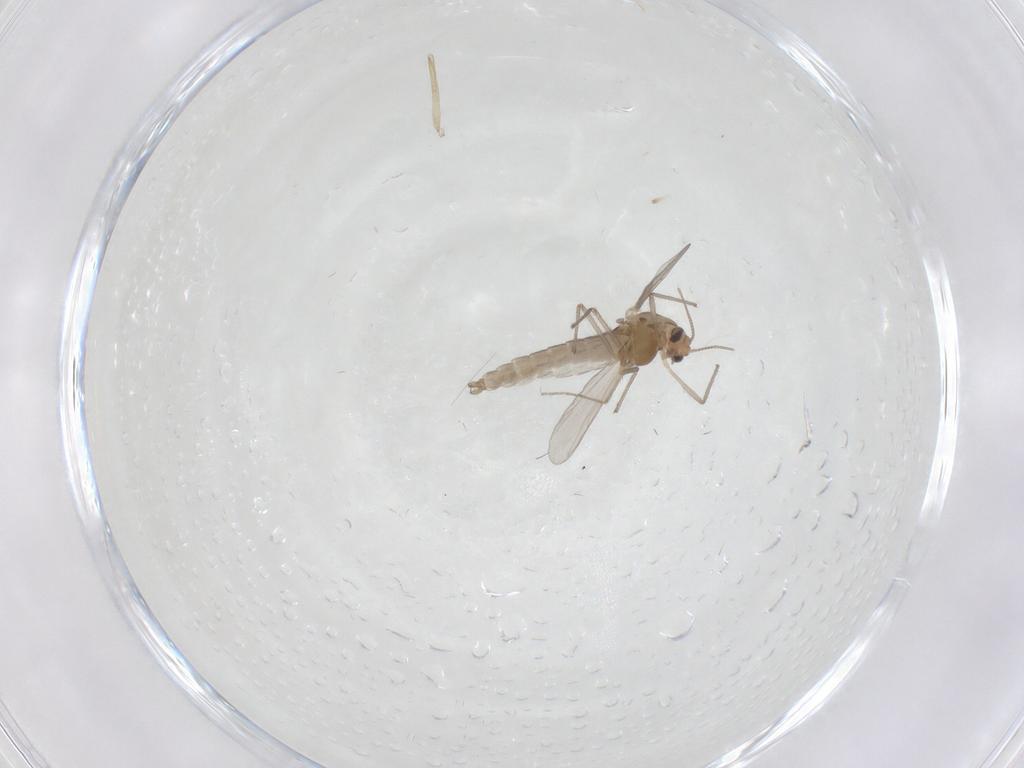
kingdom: Animalia
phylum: Arthropoda
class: Insecta
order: Diptera
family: Chironomidae
